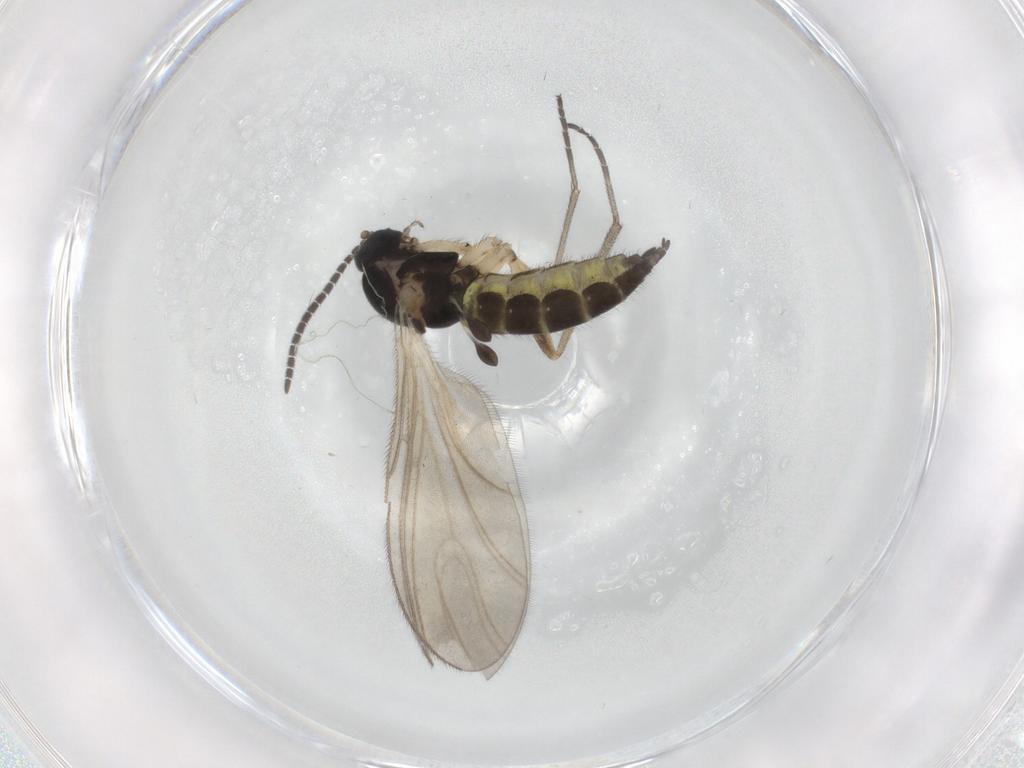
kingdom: Animalia
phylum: Arthropoda
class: Insecta
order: Diptera
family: Sciaridae
